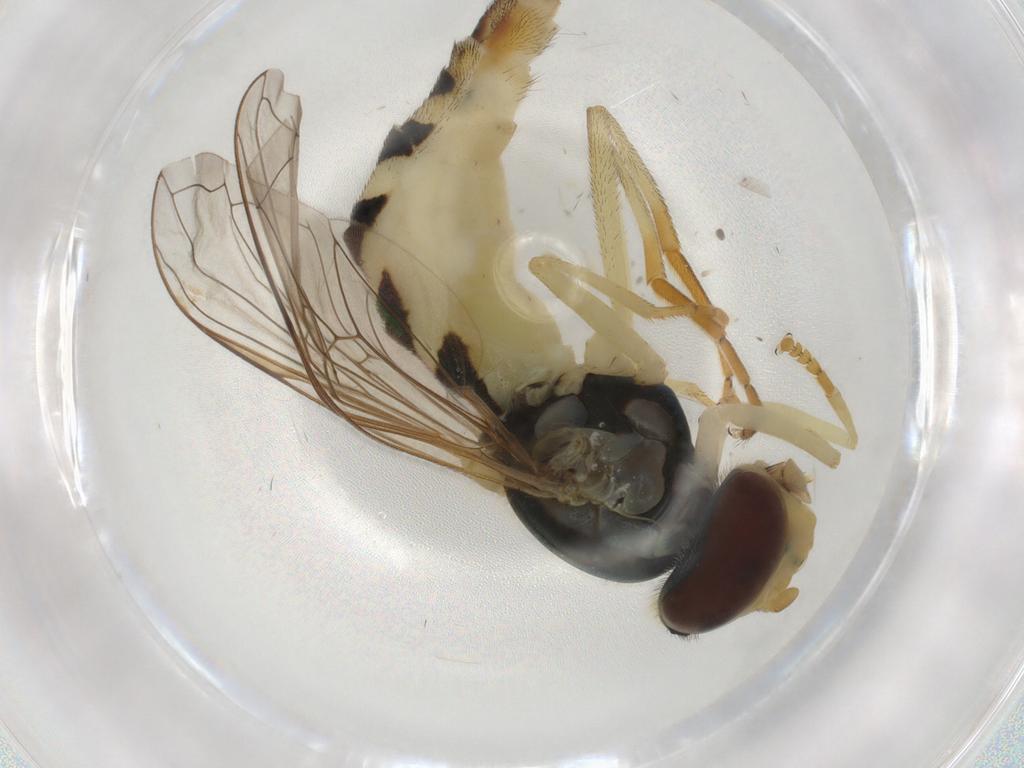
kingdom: Animalia
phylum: Arthropoda
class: Insecta
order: Diptera
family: Syrphidae
